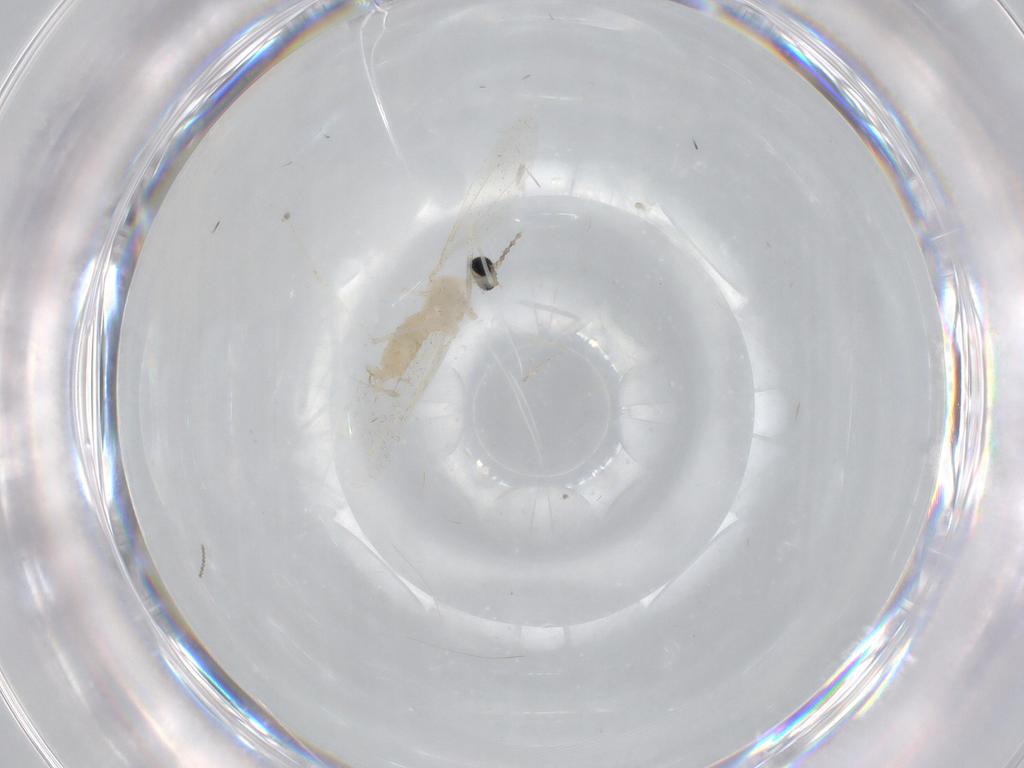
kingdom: Animalia
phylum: Arthropoda
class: Insecta
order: Diptera
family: Cecidomyiidae
